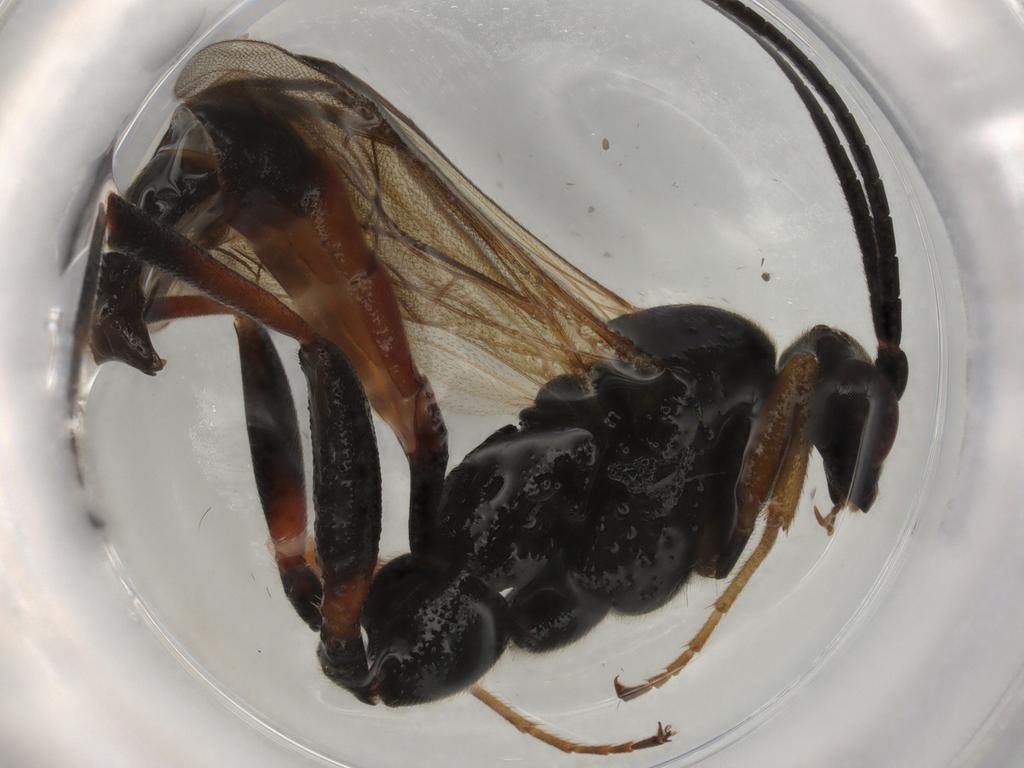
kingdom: Animalia
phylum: Arthropoda
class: Insecta
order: Hymenoptera
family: Ichneumonidae
